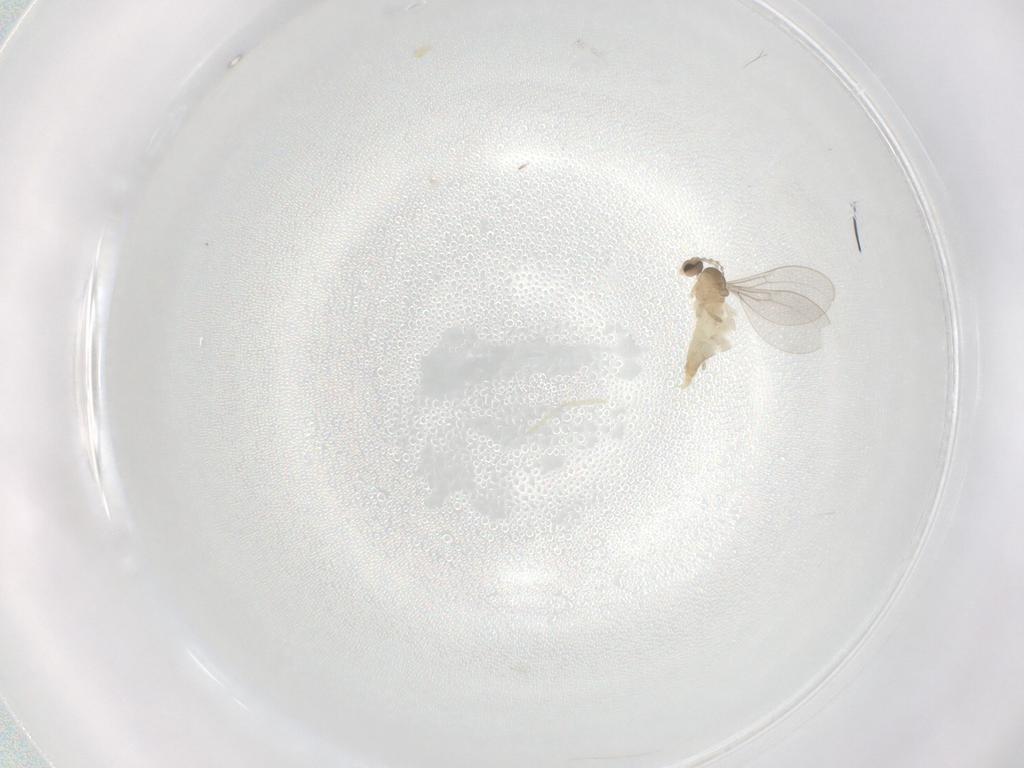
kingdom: Animalia
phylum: Arthropoda
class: Insecta
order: Diptera
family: Cecidomyiidae
